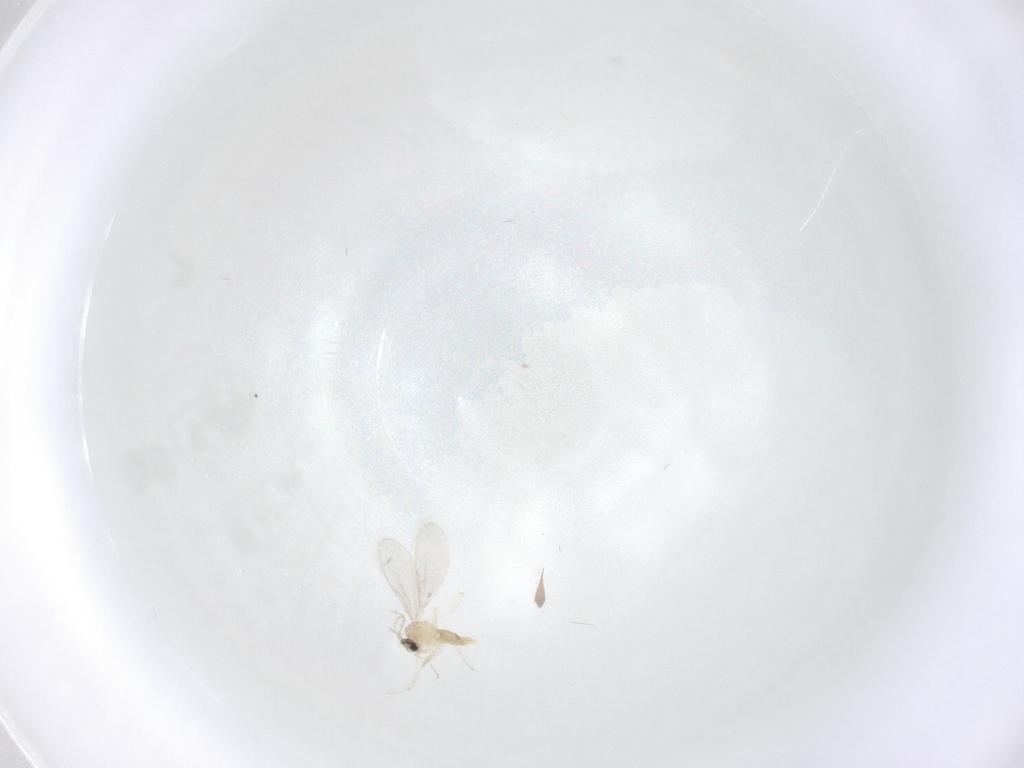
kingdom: Animalia
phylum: Arthropoda
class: Insecta
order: Diptera
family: Cecidomyiidae
